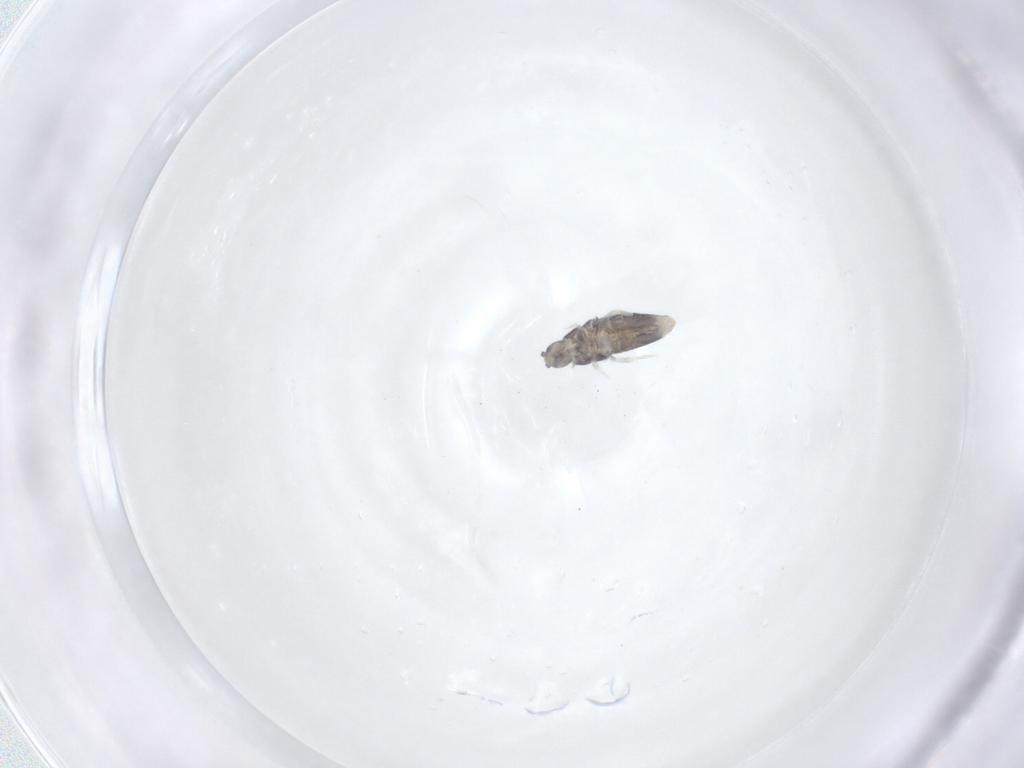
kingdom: Animalia
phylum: Arthropoda
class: Collembola
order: Entomobryomorpha
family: Entomobryidae
